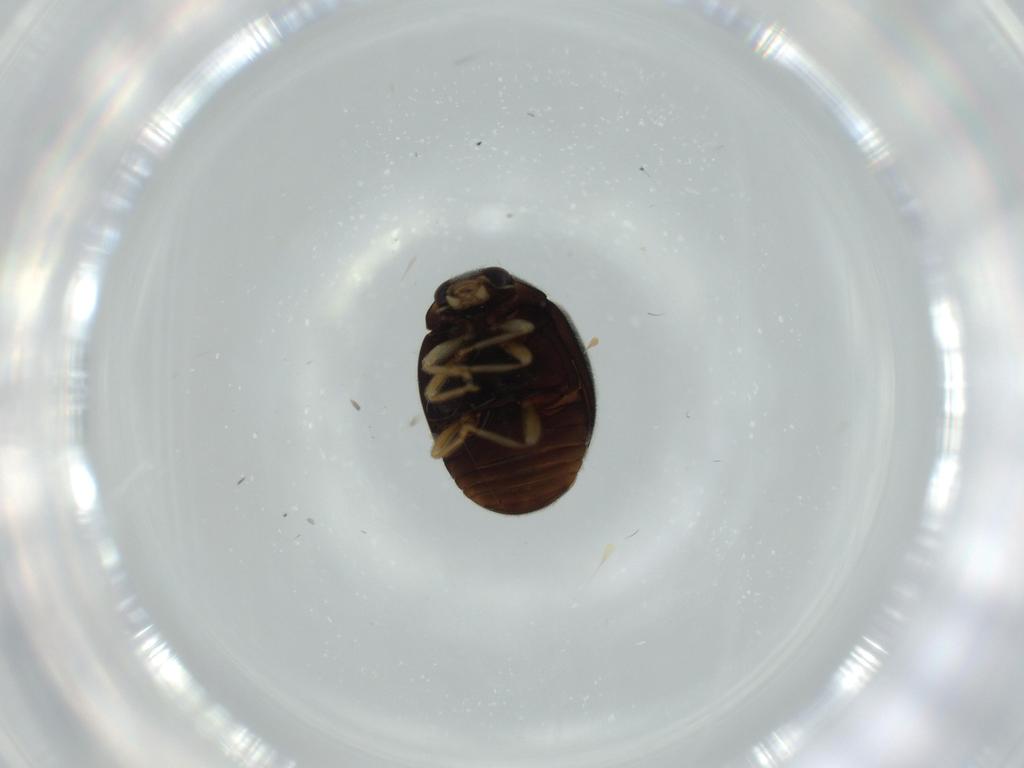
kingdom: Animalia
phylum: Arthropoda
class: Insecta
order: Coleoptera
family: Coccinellidae
